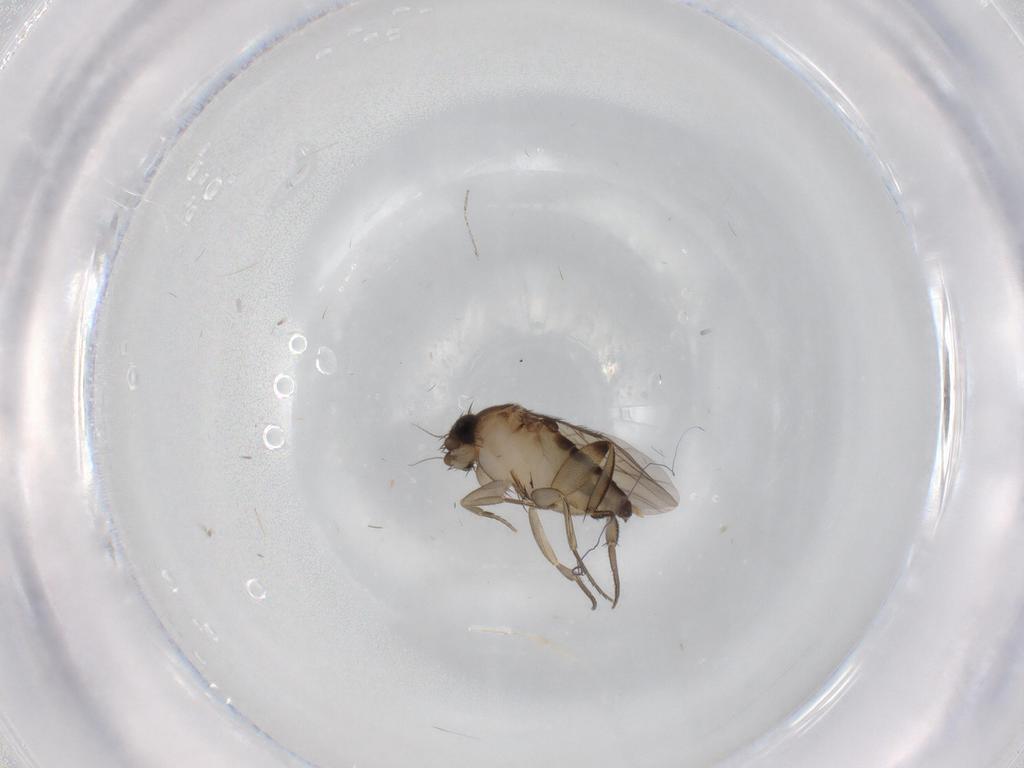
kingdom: Animalia
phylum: Arthropoda
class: Insecta
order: Diptera
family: Phoridae
